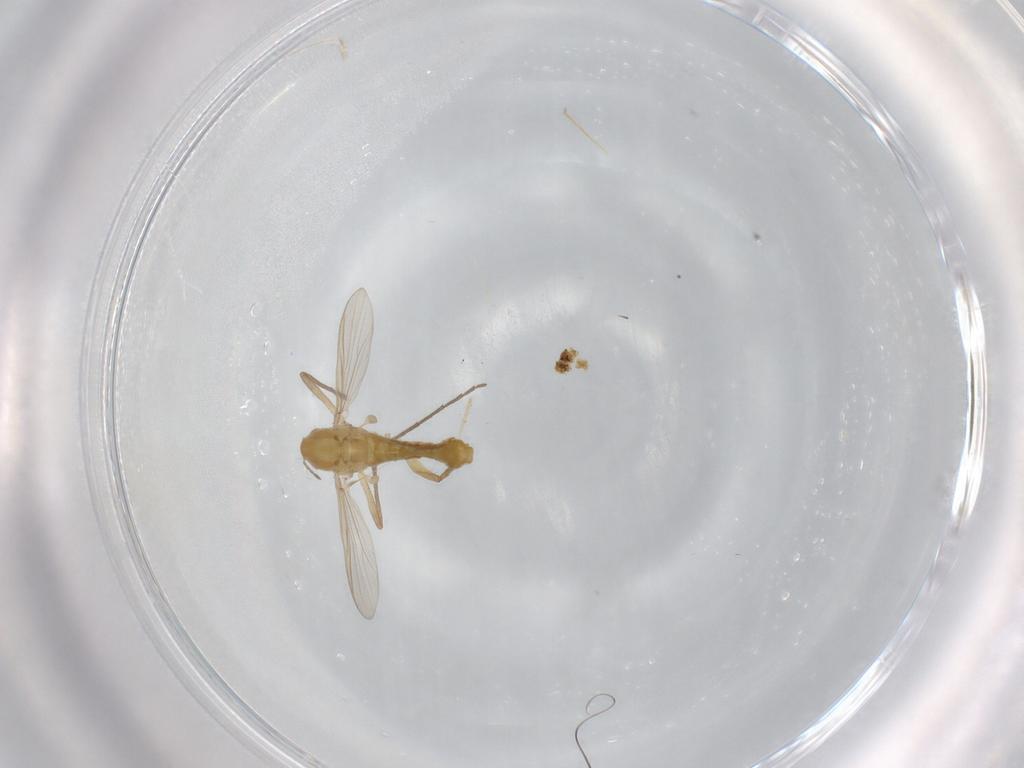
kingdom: Animalia
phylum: Arthropoda
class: Insecta
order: Diptera
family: Chironomidae
